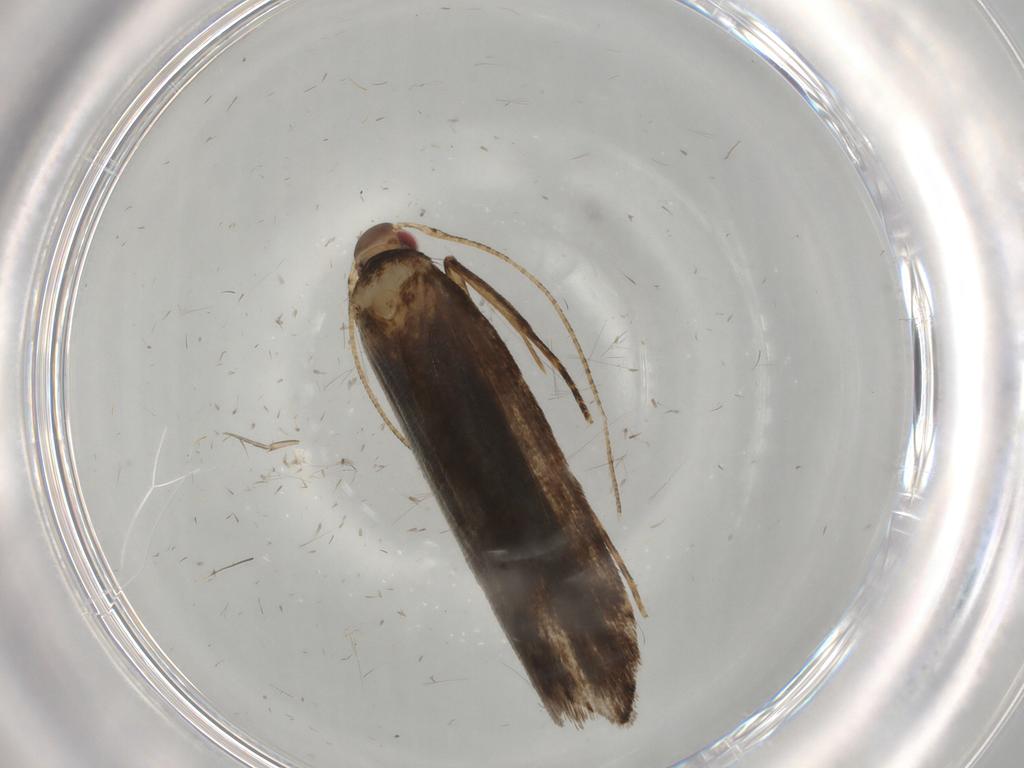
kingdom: Animalia
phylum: Arthropoda
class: Insecta
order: Lepidoptera
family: Gelechiidae
